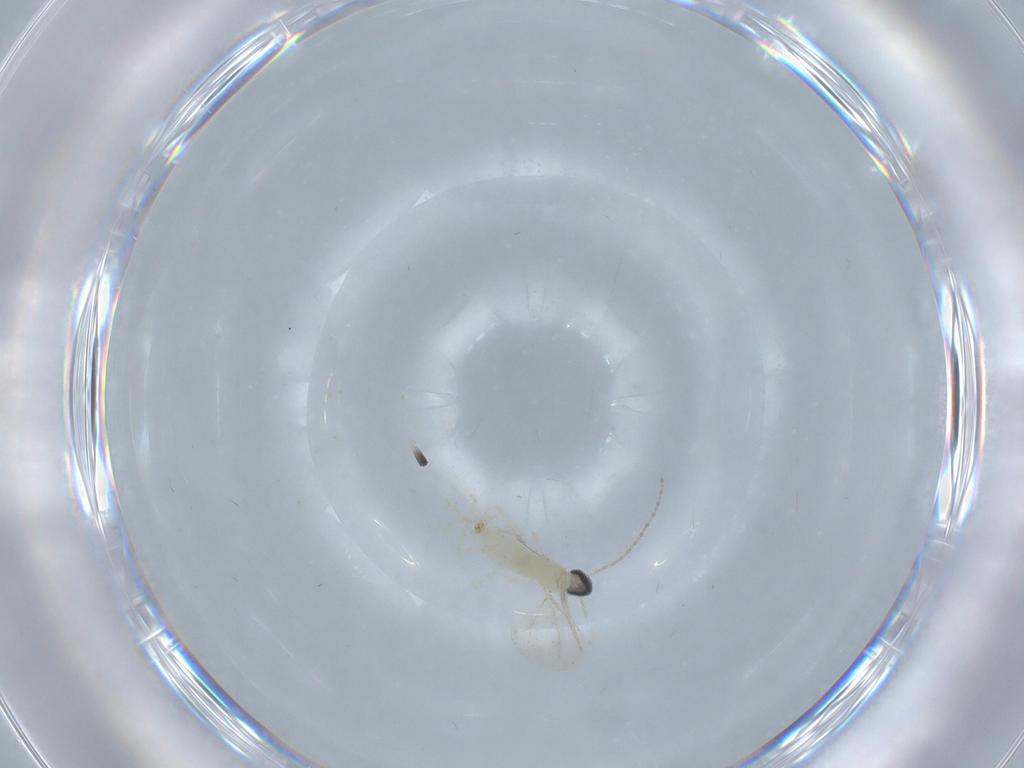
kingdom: Animalia
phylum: Arthropoda
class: Insecta
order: Diptera
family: Cecidomyiidae
